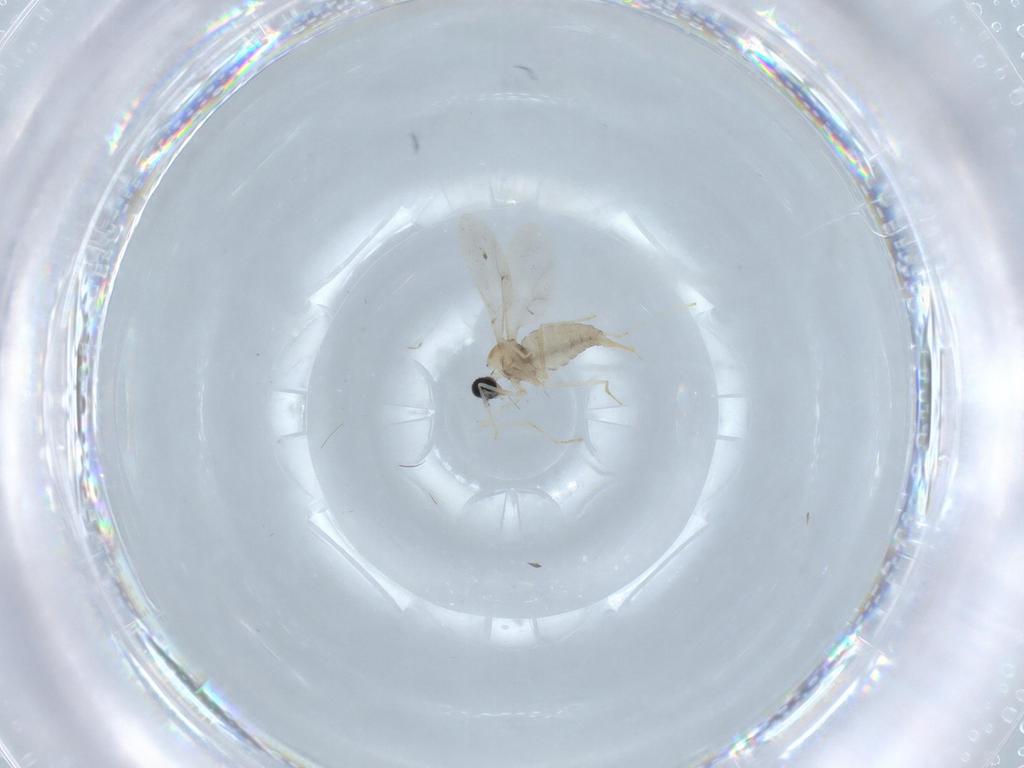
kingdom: Animalia
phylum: Arthropoda
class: Insecta
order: Diptera
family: Cecidomyiidae
